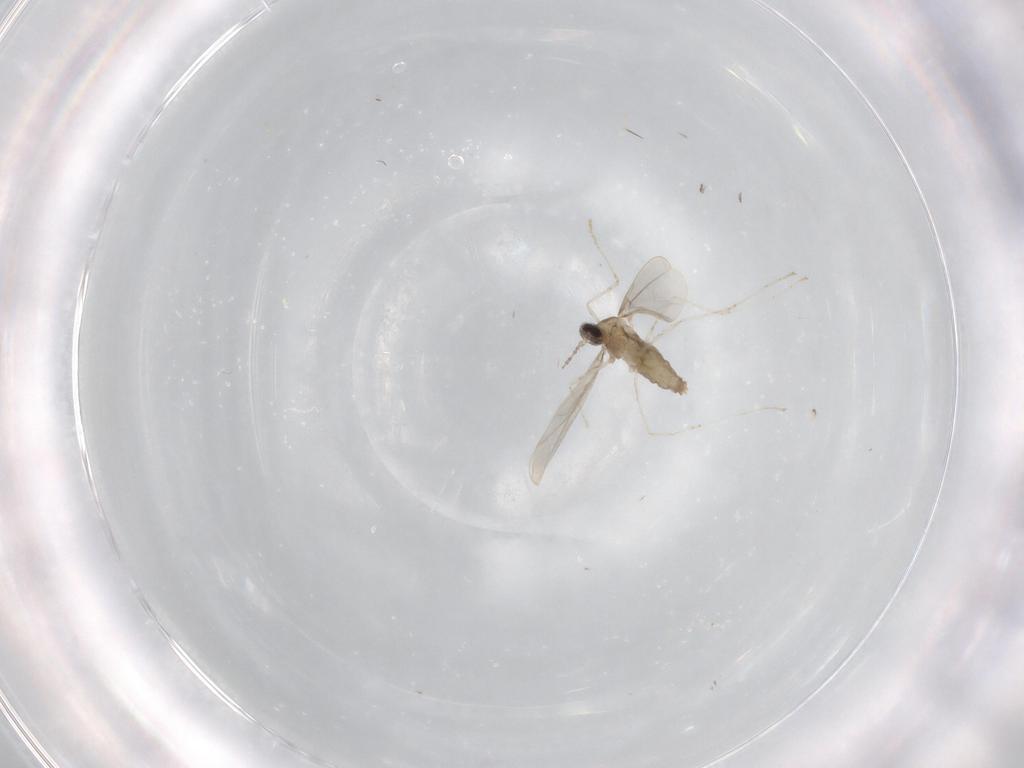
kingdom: Animalia
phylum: Arthropoda
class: Insecta
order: Diptera
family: Cecidomyiidae
